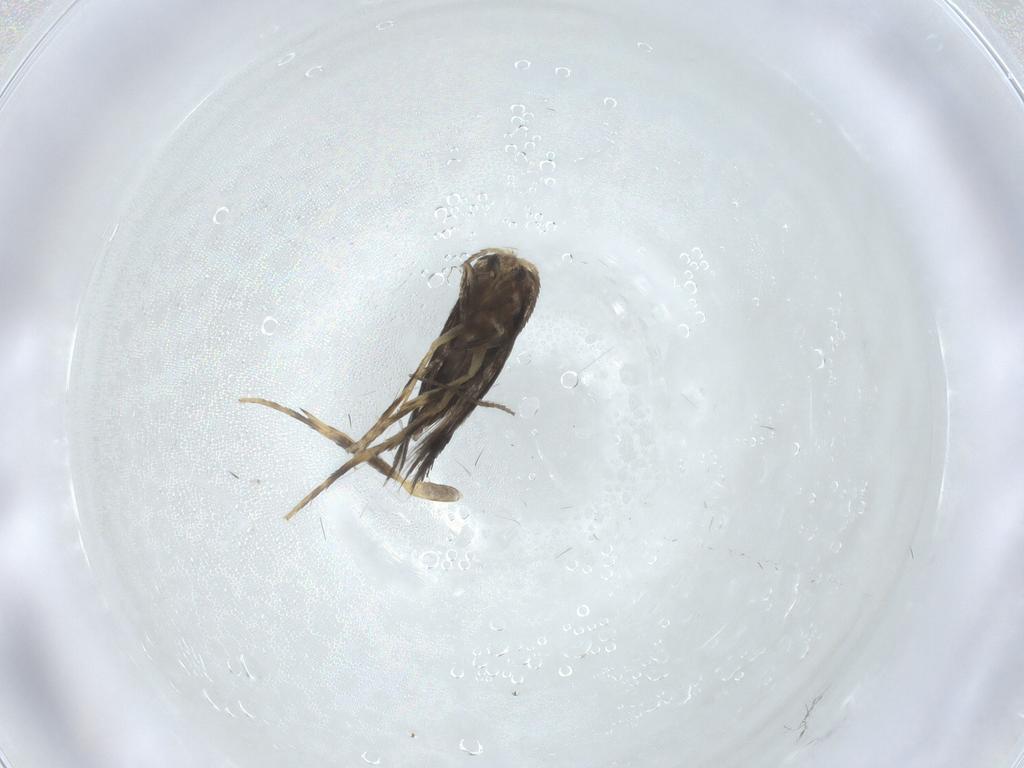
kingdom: Animalia
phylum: Arthropoda
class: Insecta
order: Lepidoptera
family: Nepticulidae
